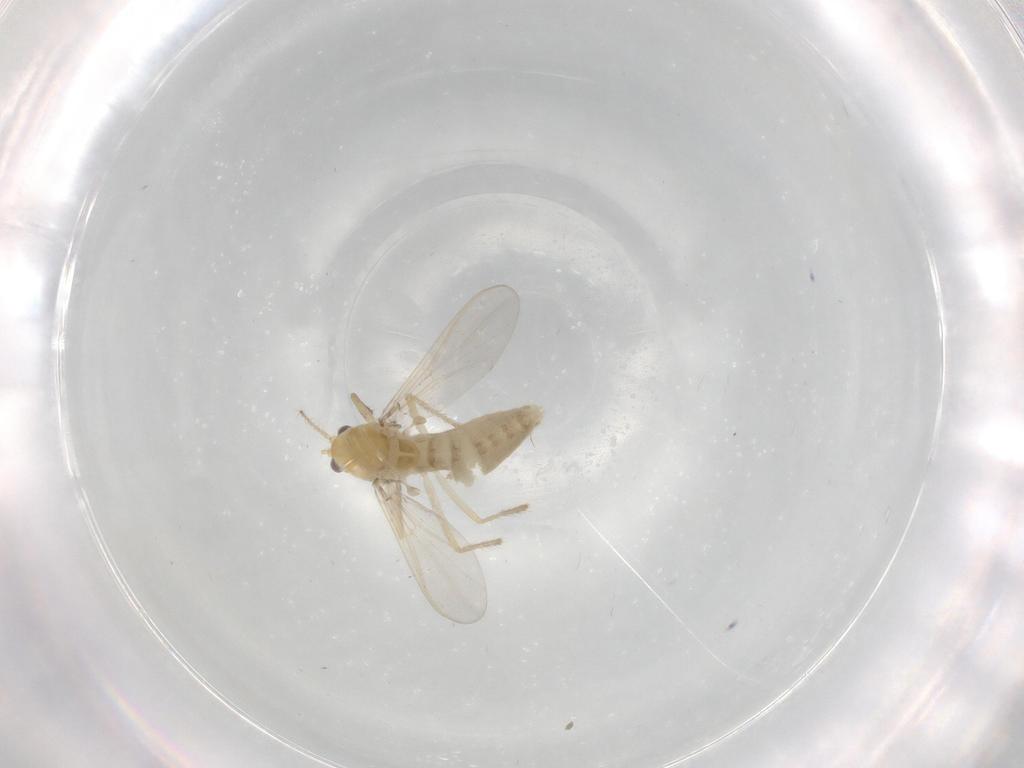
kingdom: Animalia
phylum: Arthropoda
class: Insecta
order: Diptera
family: Chironomidae
